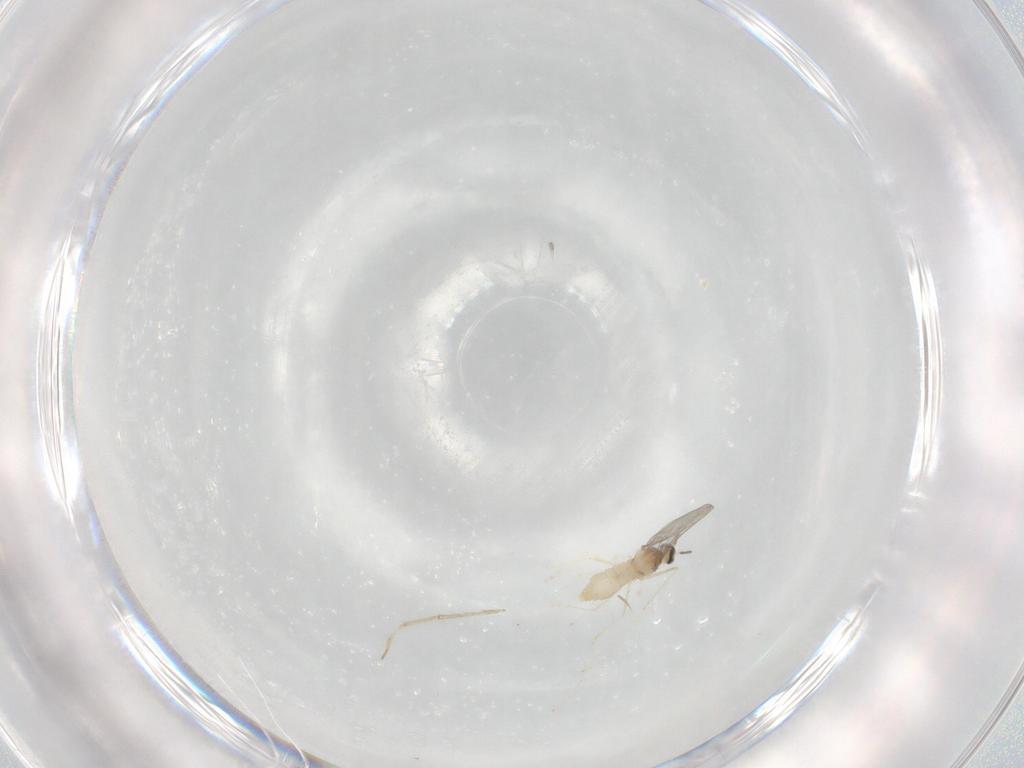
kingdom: Animalia
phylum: Arthropoda
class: Insecta
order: Diptera
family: Cecidomyiidae
